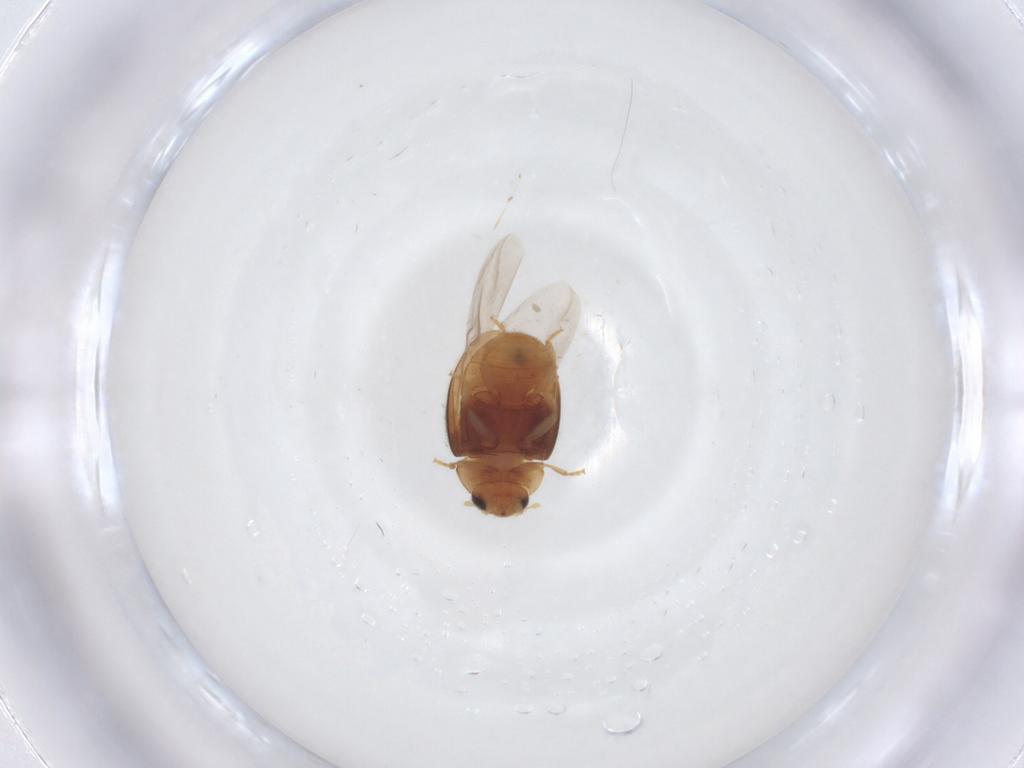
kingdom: Animalia
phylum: Arthropoda
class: Insecta
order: Coleoptera
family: Coccinellidae
